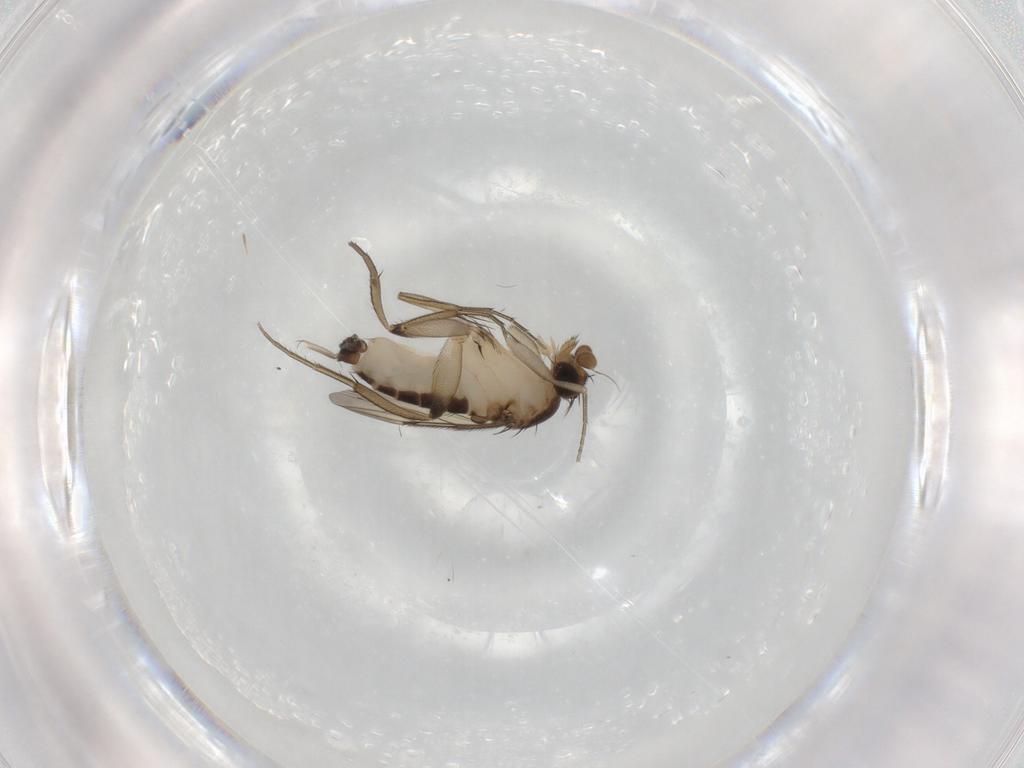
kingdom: Animalia
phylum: Arthropoda
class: Insecta
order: Diptera
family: Phoridae
